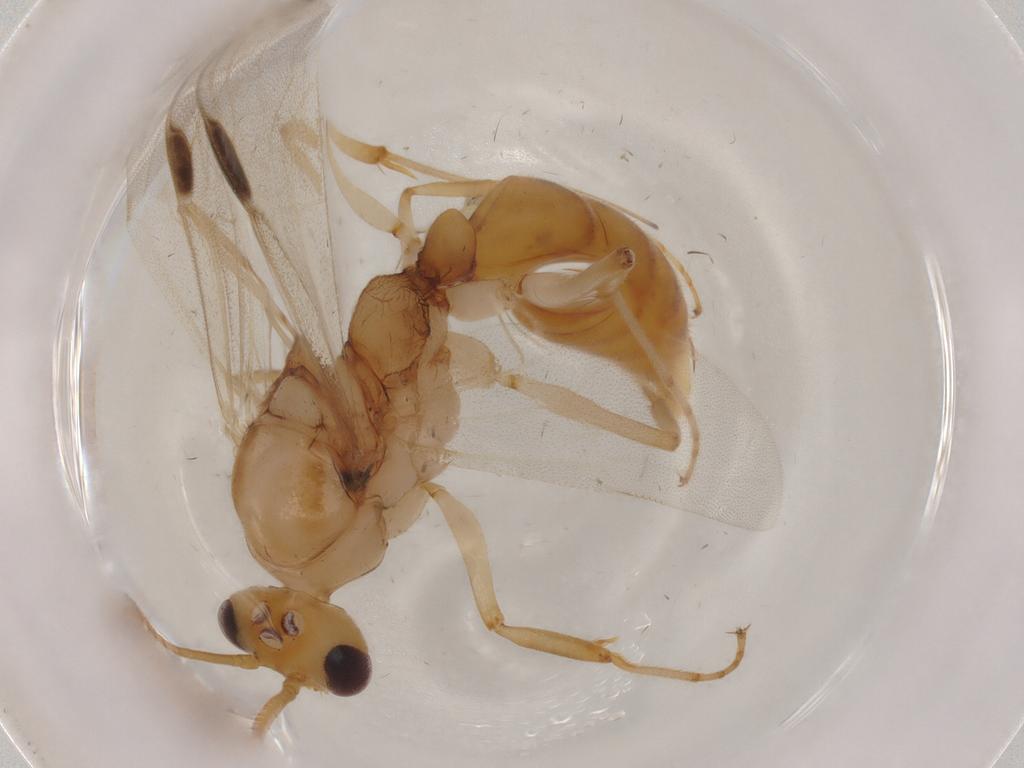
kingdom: Animalia
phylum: Arthropoda
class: Insecta
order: Hymenoptera
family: Formicidae
